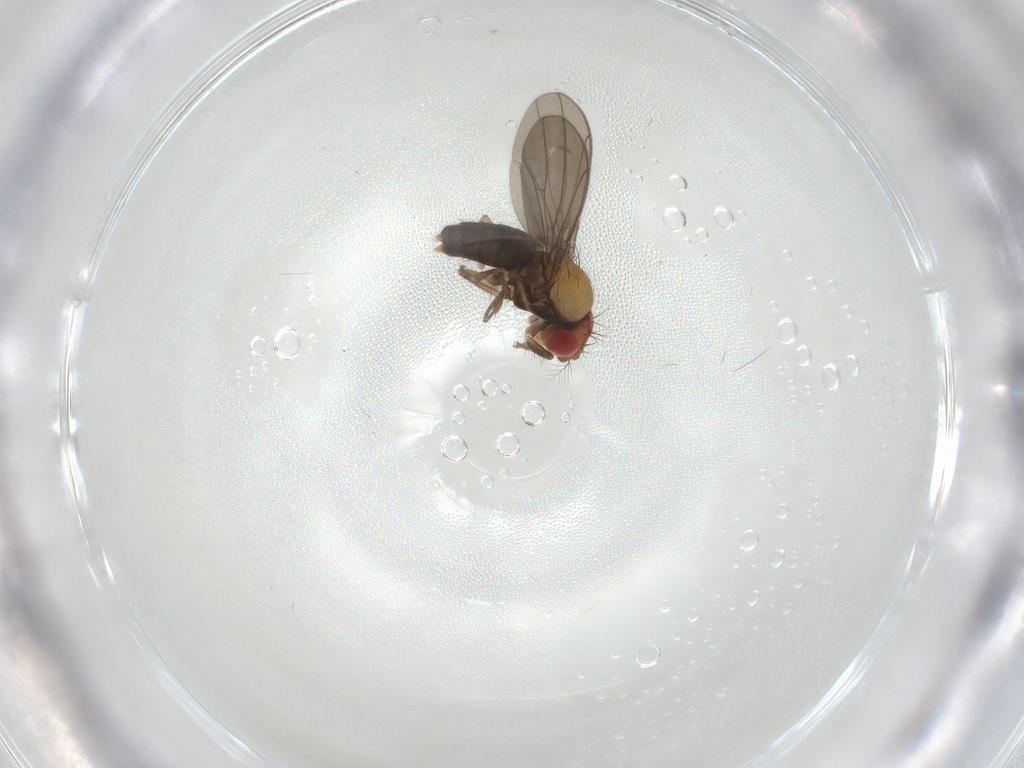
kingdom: Animalia
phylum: Arthropoda
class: Insecta
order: Diptera
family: Drosophilidae
